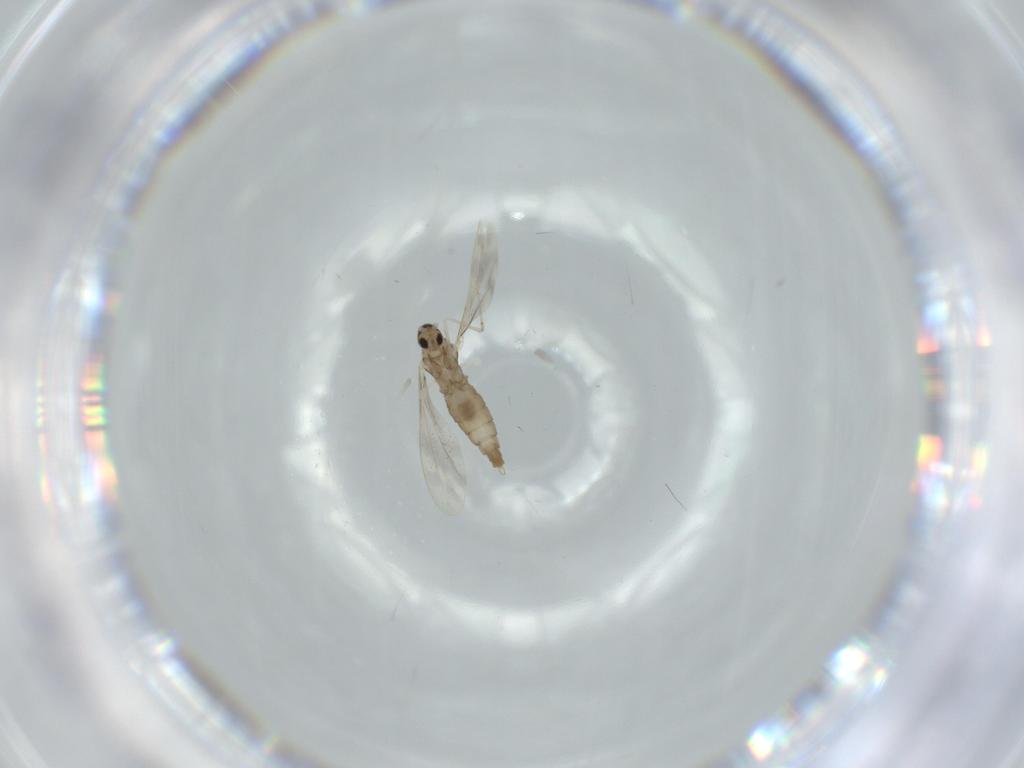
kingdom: Animalia
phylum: Arthropoda
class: Insecta
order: Diptera
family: Cecidomyiidae
